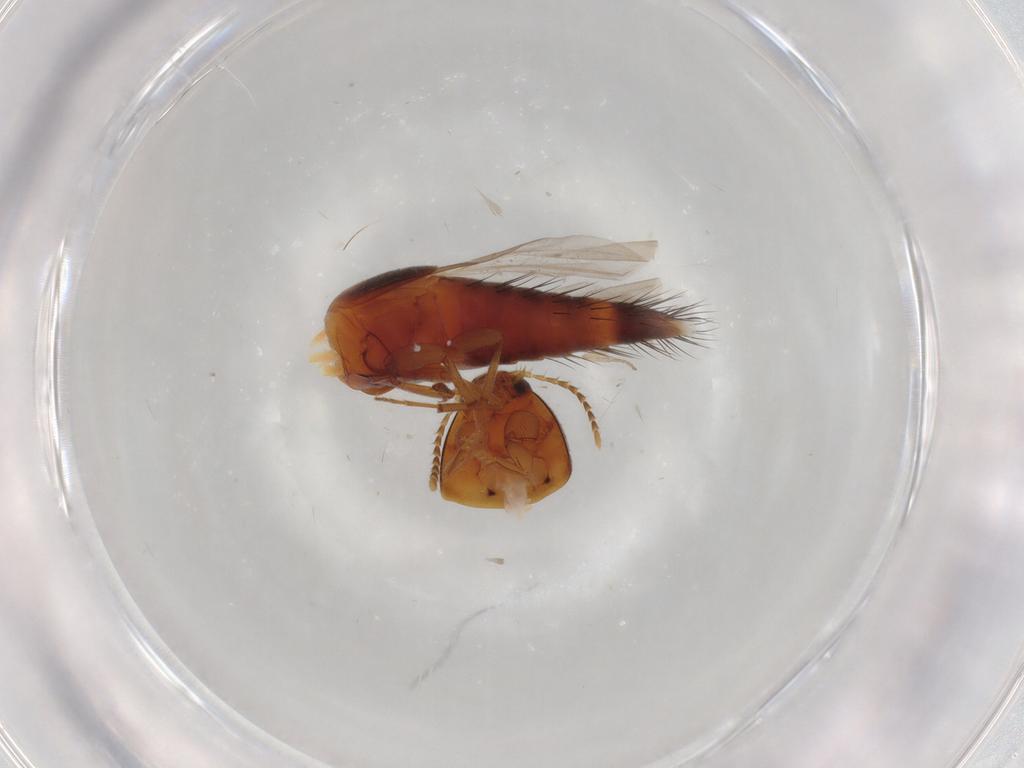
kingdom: Animalia
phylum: Arthropoda
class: Insecta
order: Coleoptera
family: Staphylinidae
